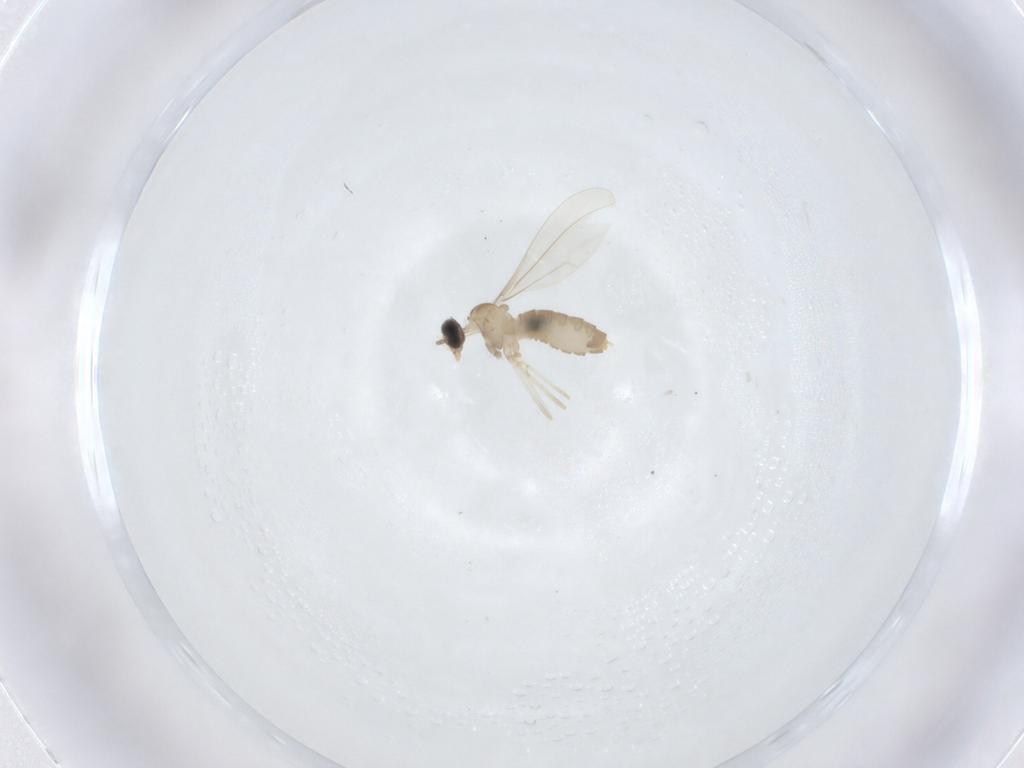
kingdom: Animalia
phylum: Arthropoda
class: Insecta
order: Diptera
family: Cecidomyiidae
